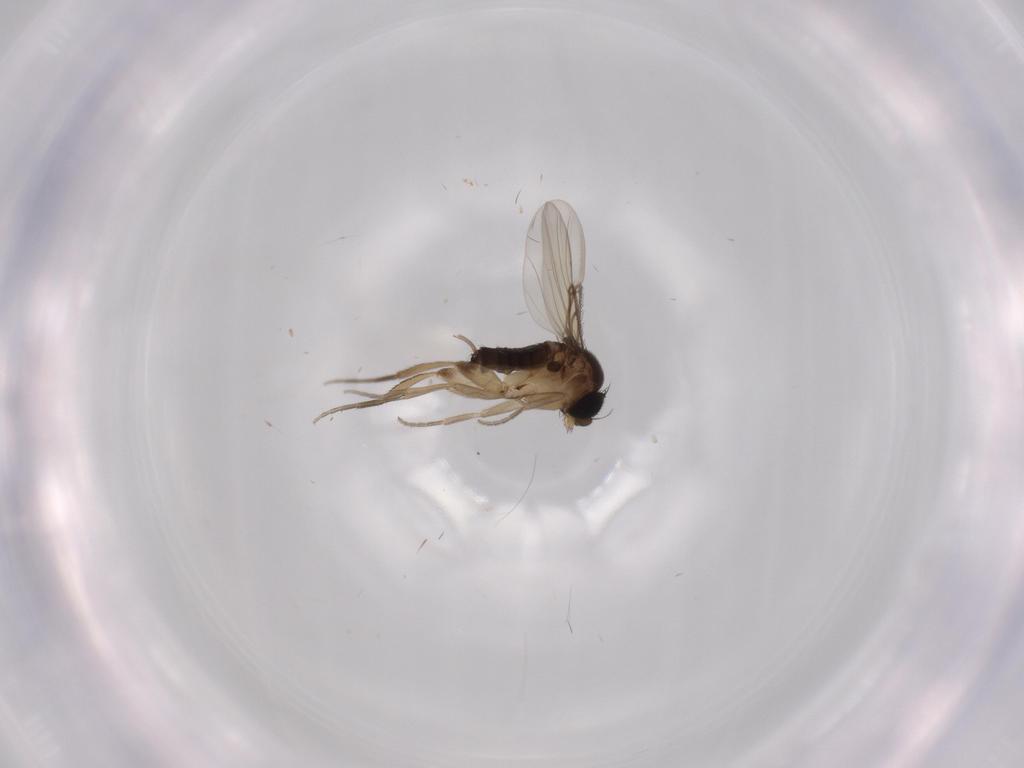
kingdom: Animalia
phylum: Arthropoda
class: Insecta
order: Diptera
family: Phoridae
